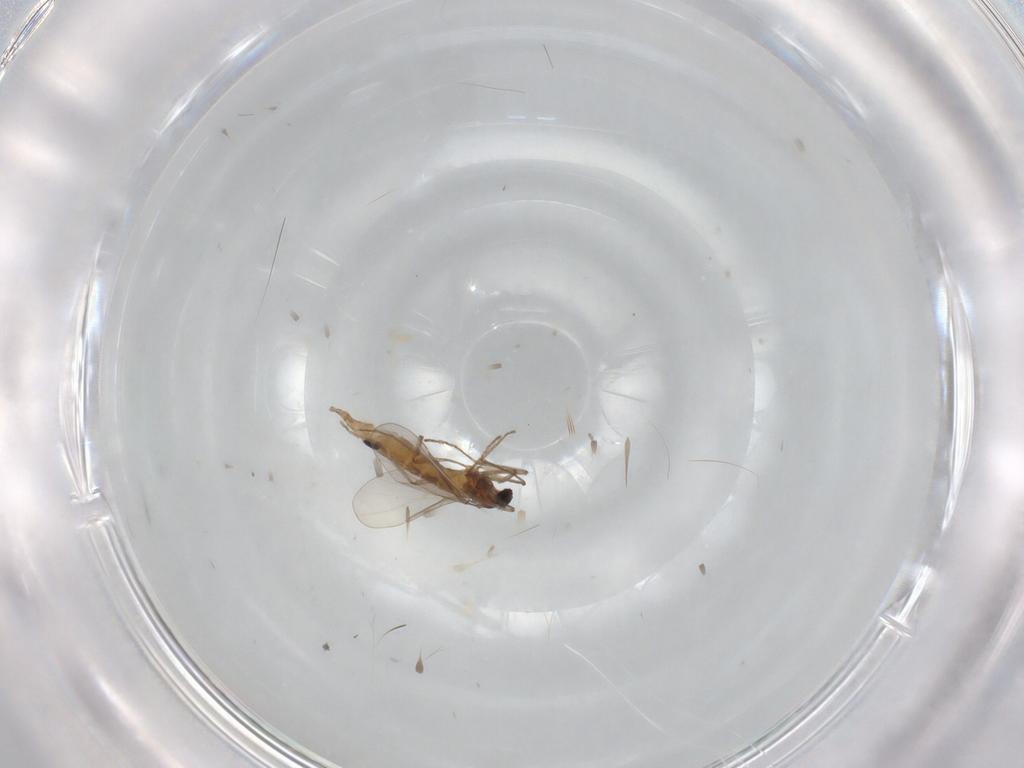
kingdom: Animalia
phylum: Arthropoda
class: Insecta
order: Diptera
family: Cecidomyiidae
